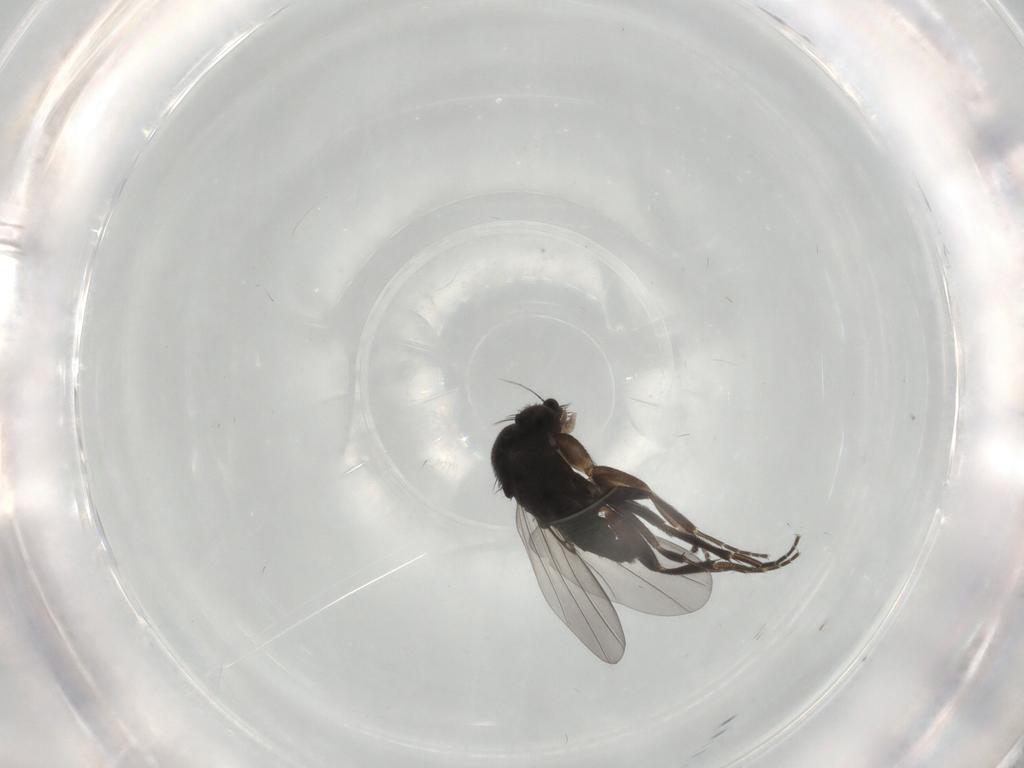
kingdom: Animalia
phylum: Arthropoda
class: Insecta
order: Diptera
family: Phoridae
